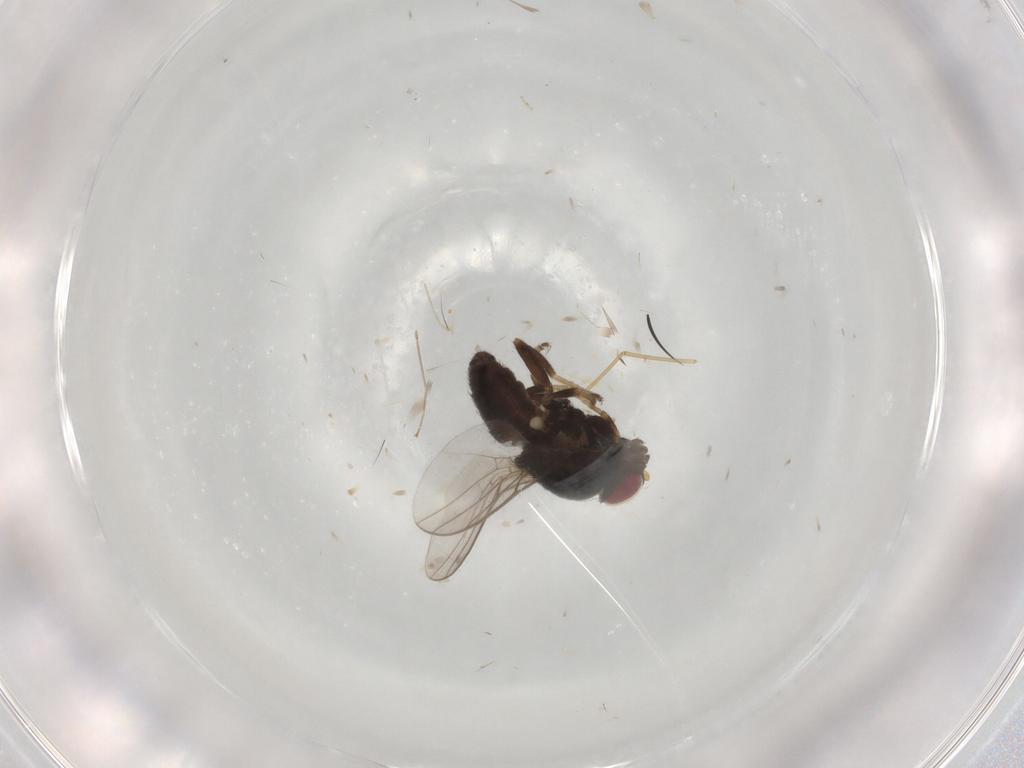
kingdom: Animalia
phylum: Arthropoda
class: Insecta
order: Diptera
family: Chloropidae
